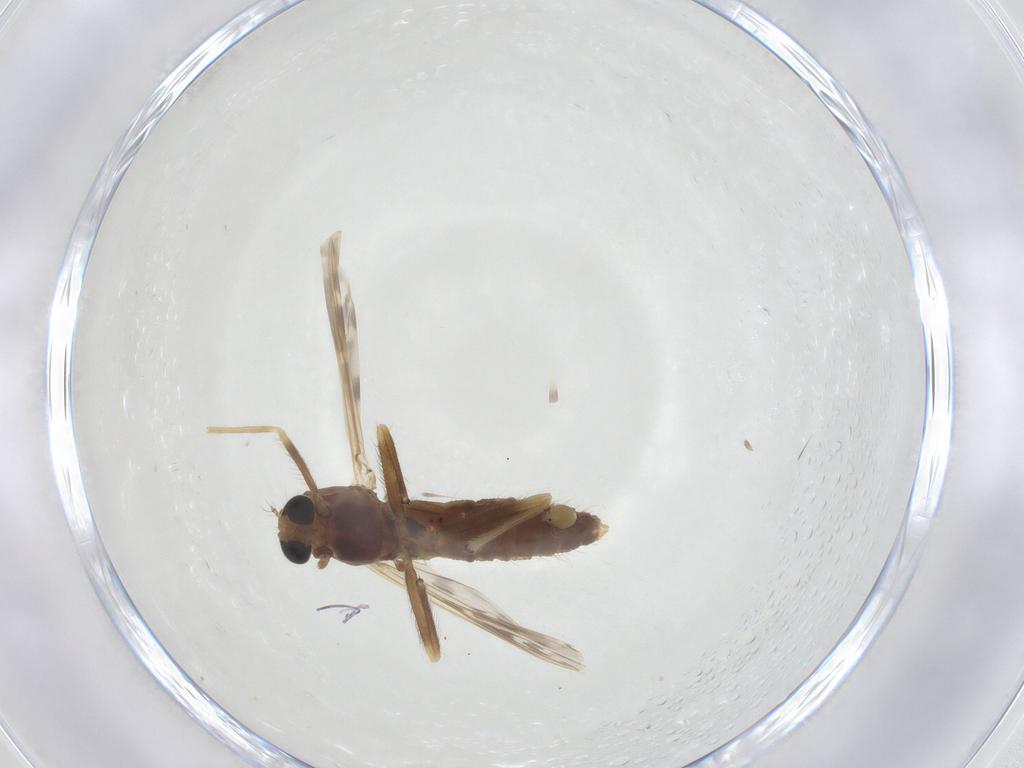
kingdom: Animalia
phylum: Arthropoda
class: Insecta
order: Diptera
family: Chironomidae
